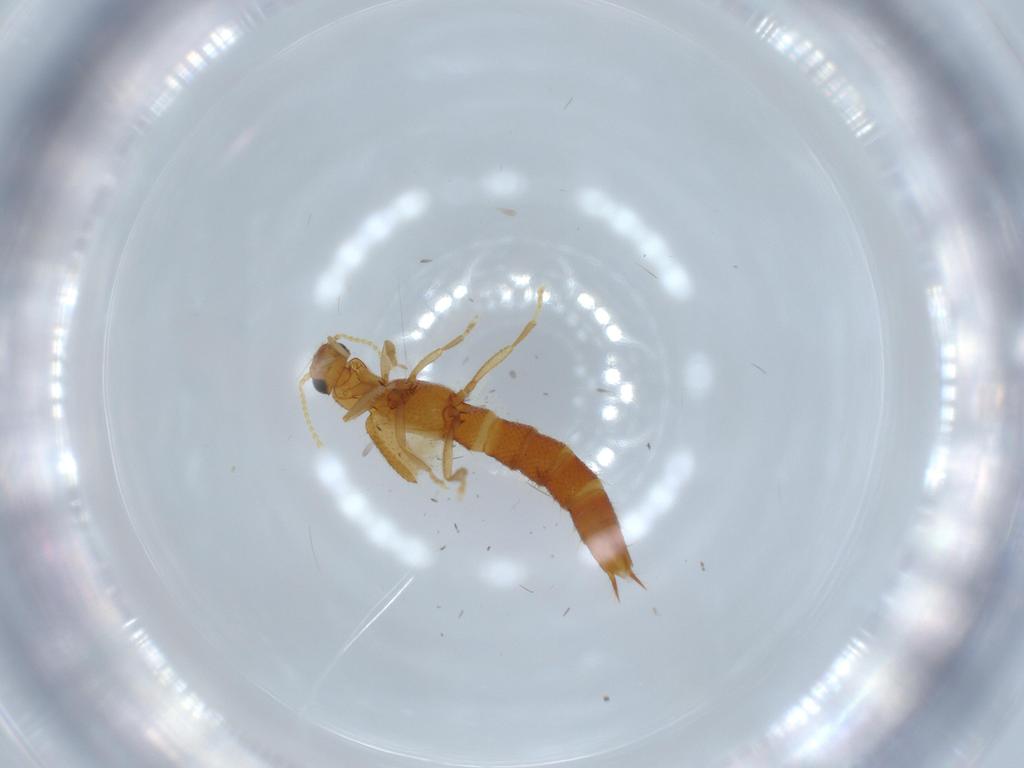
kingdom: Animalia
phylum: Arthropoda
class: Insecta
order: Coleoptera
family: Staphylinidae
